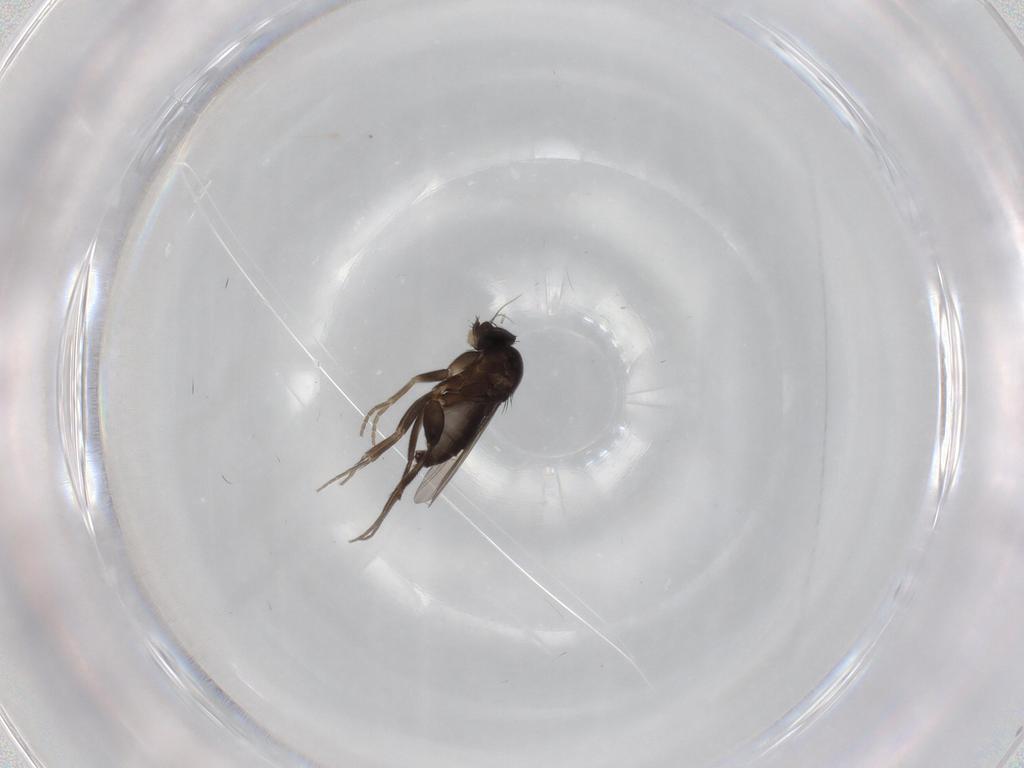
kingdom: Animalia
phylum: Arthropoda
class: Insecta
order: Diptera
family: Phoridae
